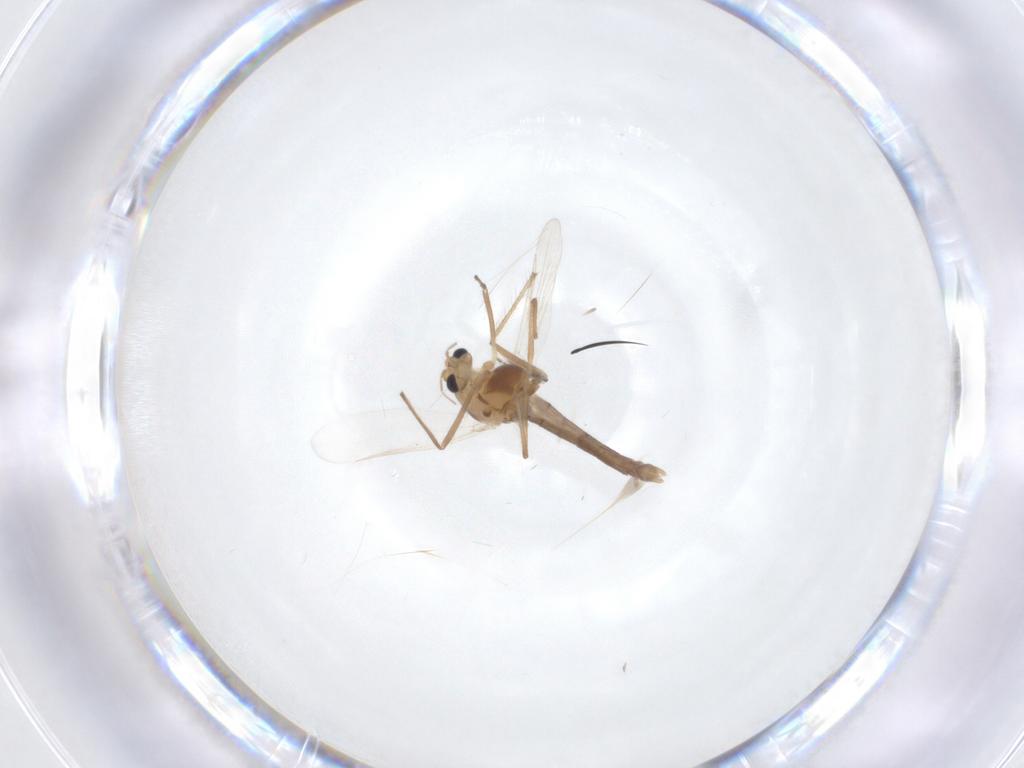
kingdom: Animalia
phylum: Arthropoda
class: Insecta
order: Diptera
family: Chironomidae
